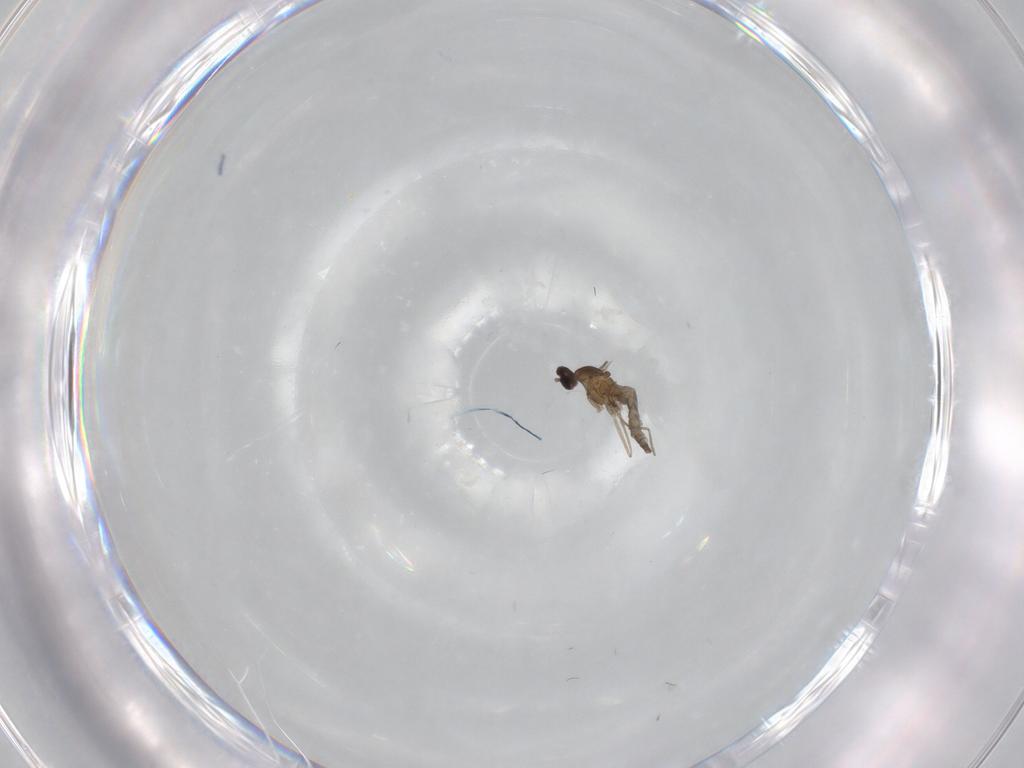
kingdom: Animalia
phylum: Arthropoda
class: Insecta
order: Diptera
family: Cecidomyiidae
